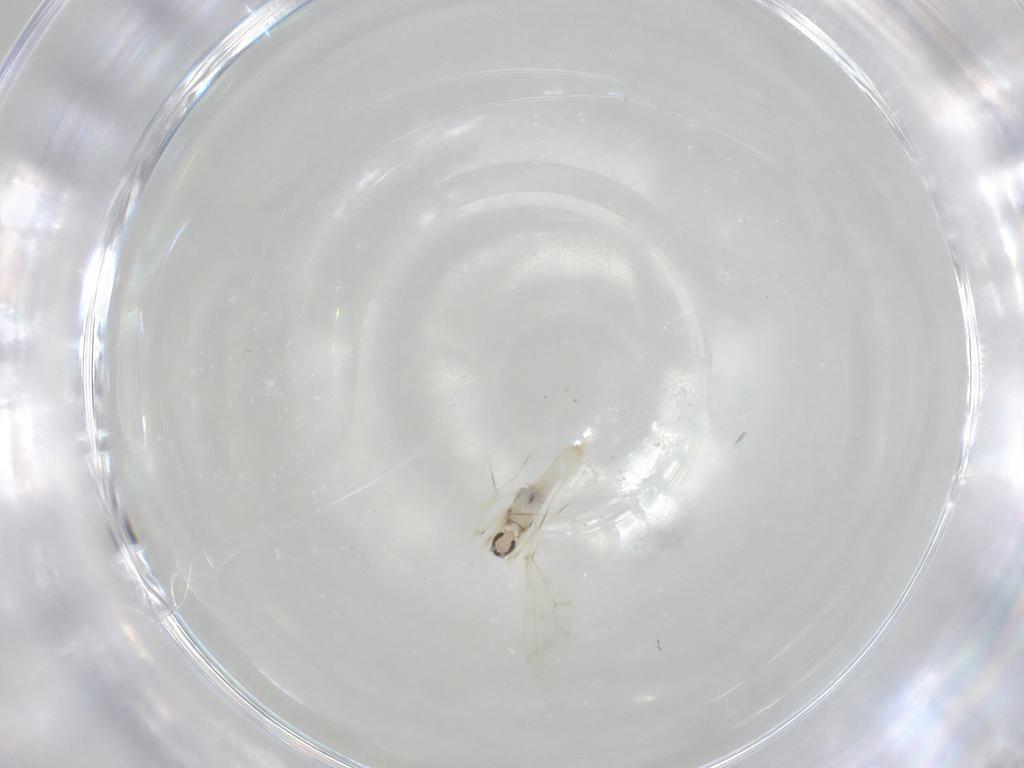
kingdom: Animalia
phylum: Arthropoda
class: Insecta
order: Diptera
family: Cecidomyiidae
